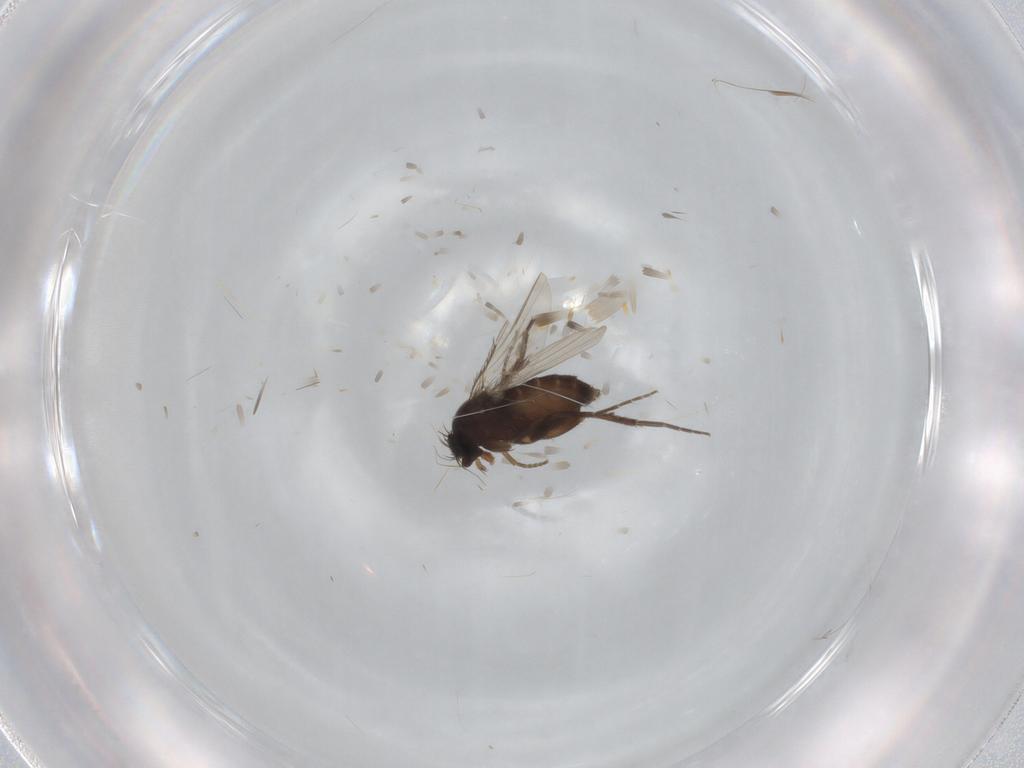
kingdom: Animalia
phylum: Arthropoda
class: Insecta
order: Diptera
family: Phoridae
